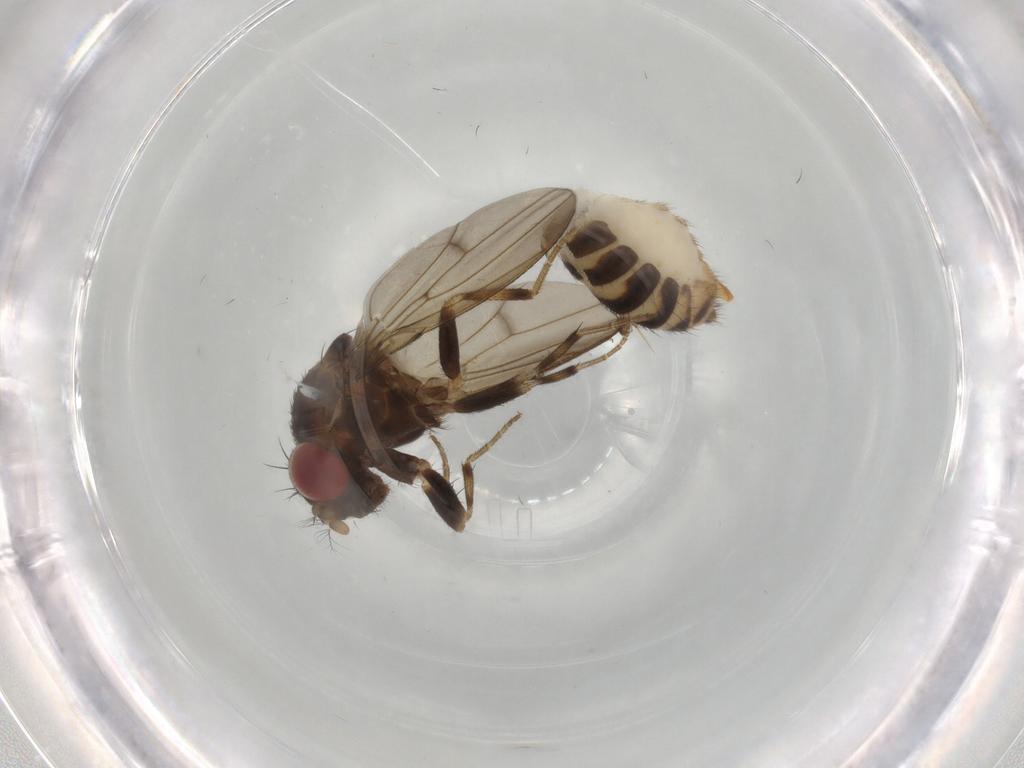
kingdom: Animalia
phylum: Arthropoda
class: Insecta
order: Diptera
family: Drosophilidae
